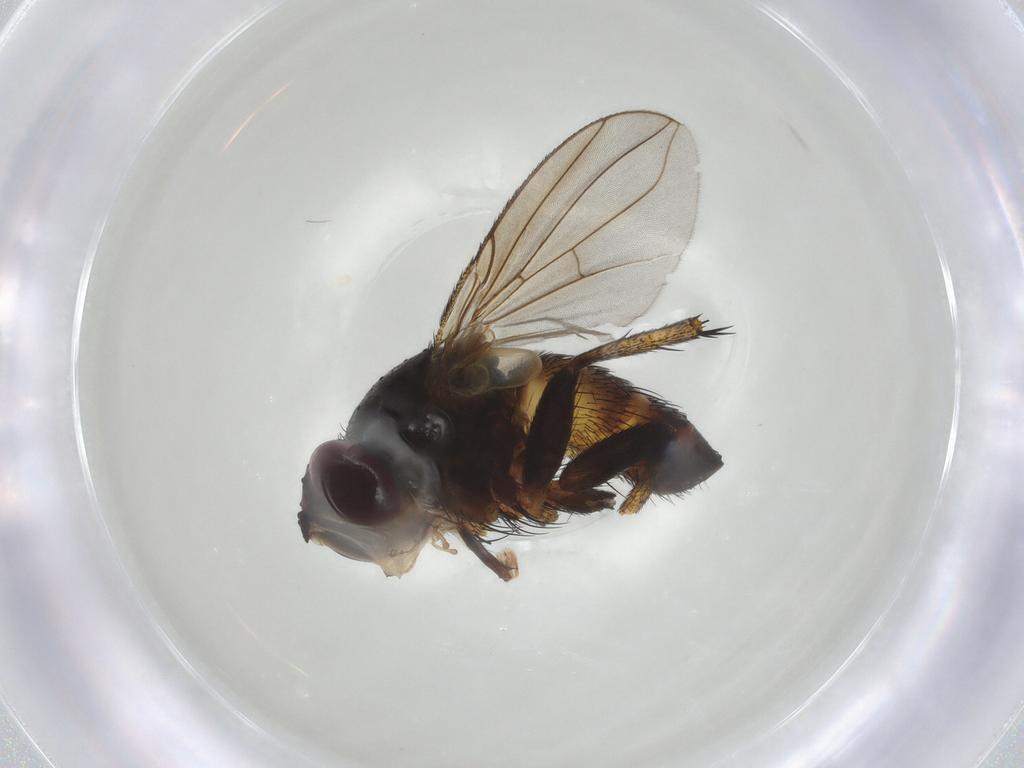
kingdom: Animalia
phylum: Arthropoda
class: Insecta
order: Diptera
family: Tachinidae
